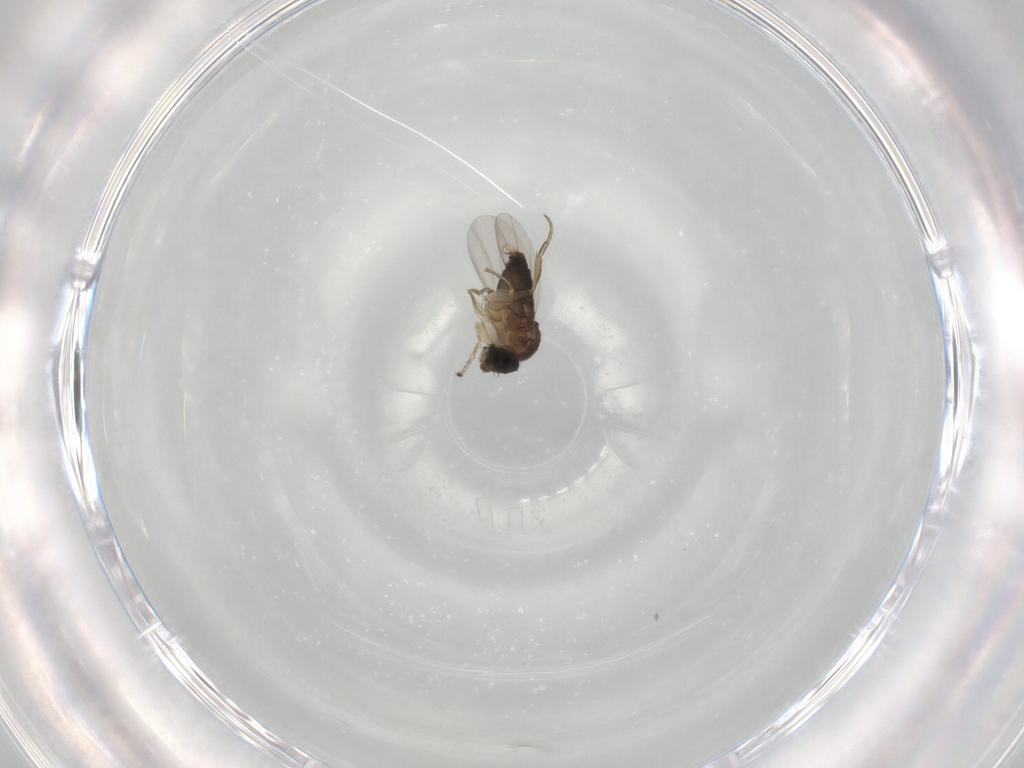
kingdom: Animalia
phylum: Arthropoda
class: Insecta
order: Diptera
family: Phoridae
